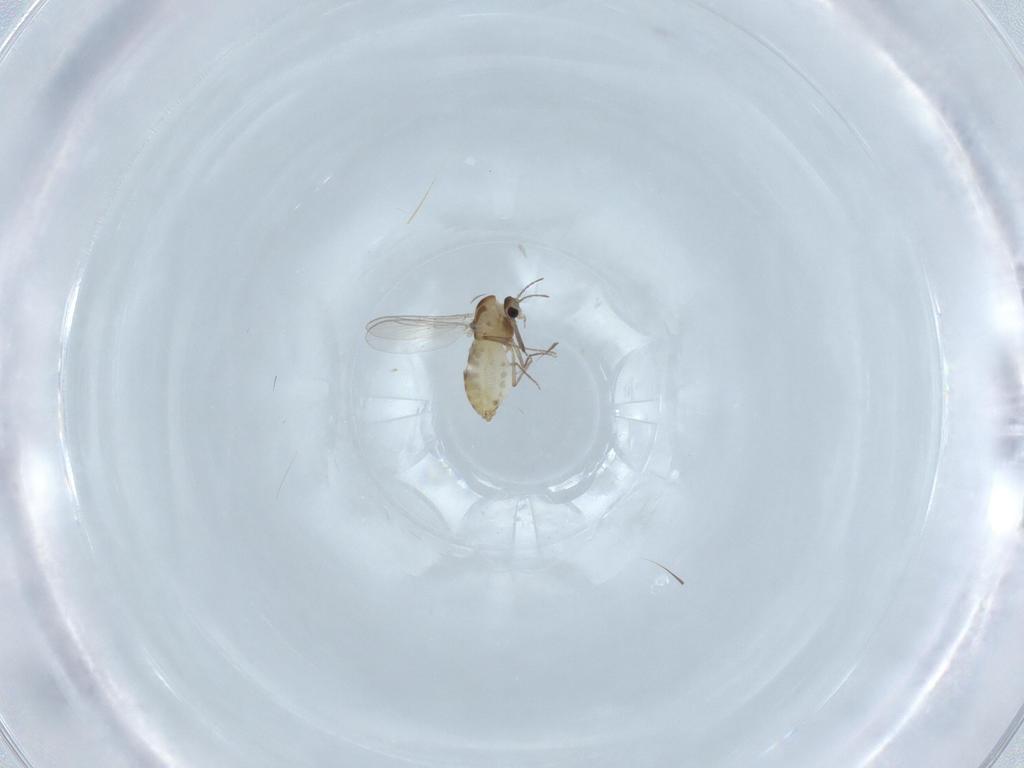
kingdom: Animalia
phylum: Arthropoda
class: Insecta
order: Diptera
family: Chironomidae
